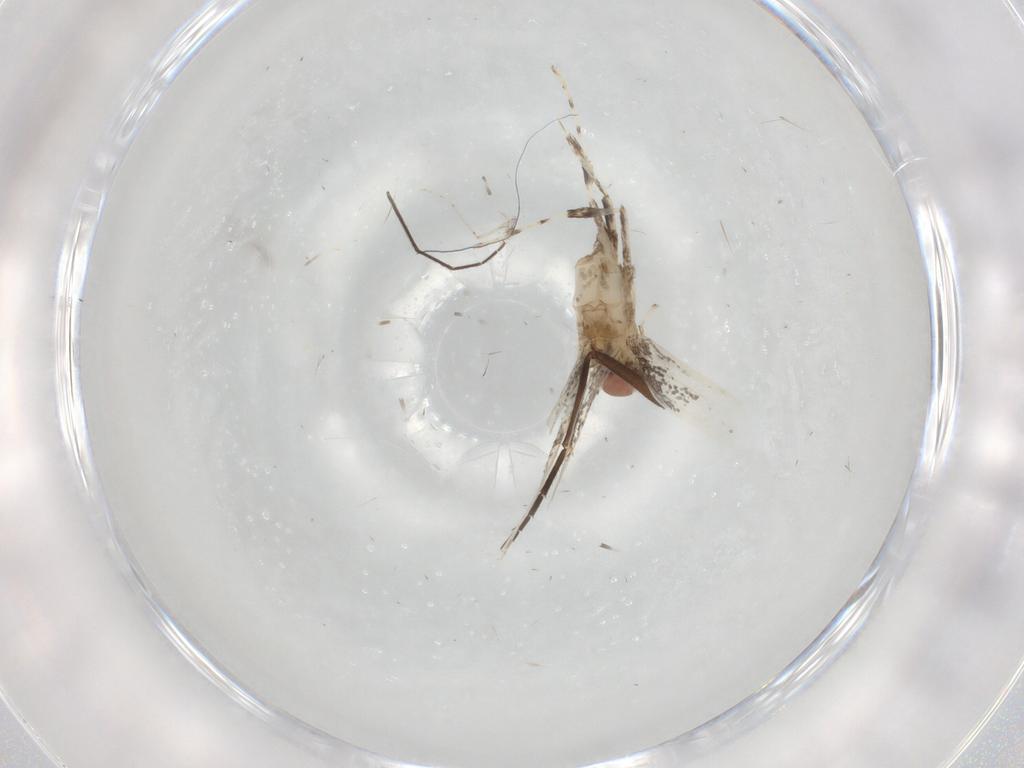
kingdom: Animalia
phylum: Arthropoda
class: Insecta
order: Lepidoptera
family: Gracillariidae
